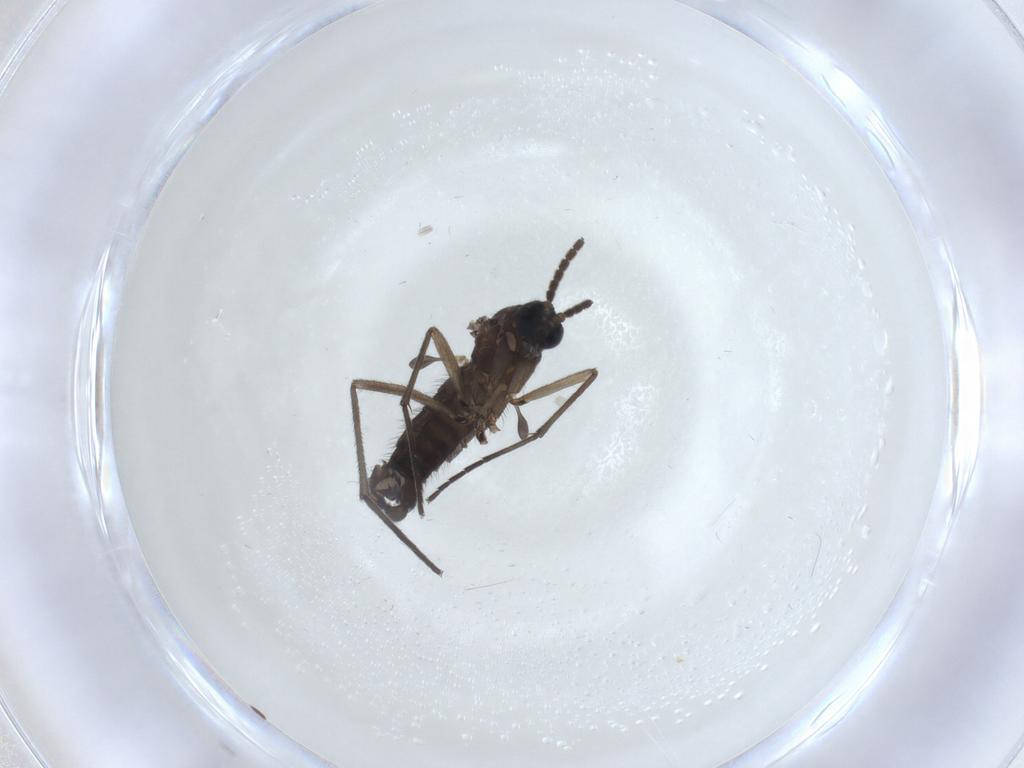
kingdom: Animalia
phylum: Arthropoda
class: Insecta
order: Diptera
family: Sciaridae
